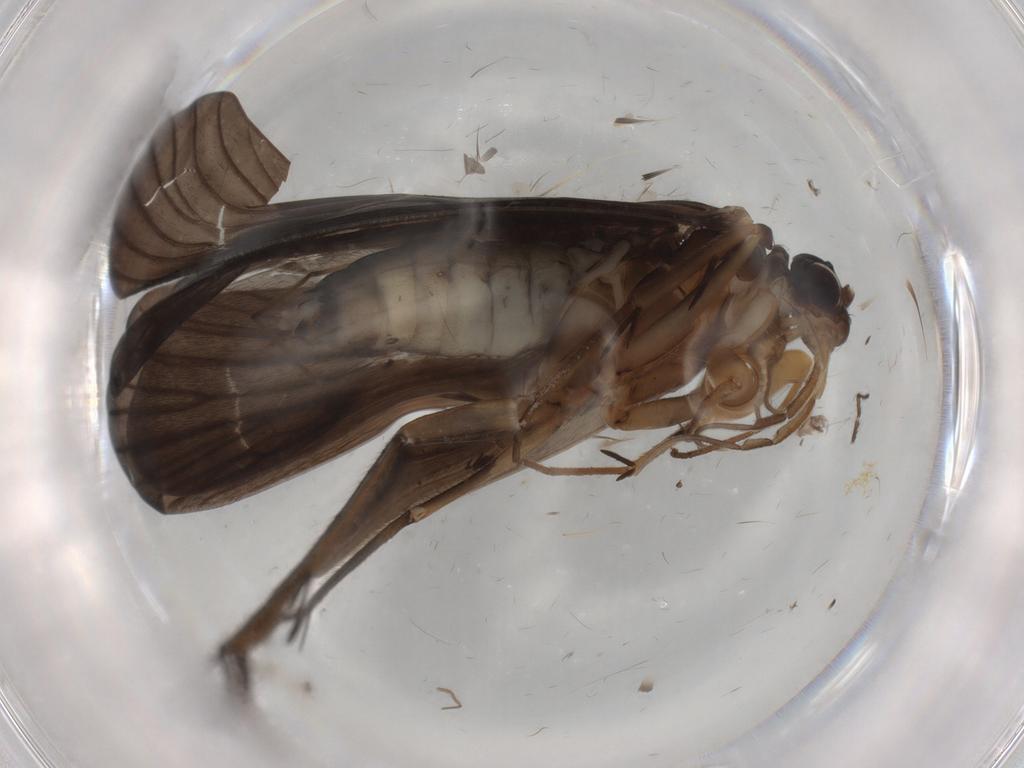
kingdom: Animalia
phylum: Arthropoda
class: Insecta
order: Trichoptera
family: Philopotamidae
